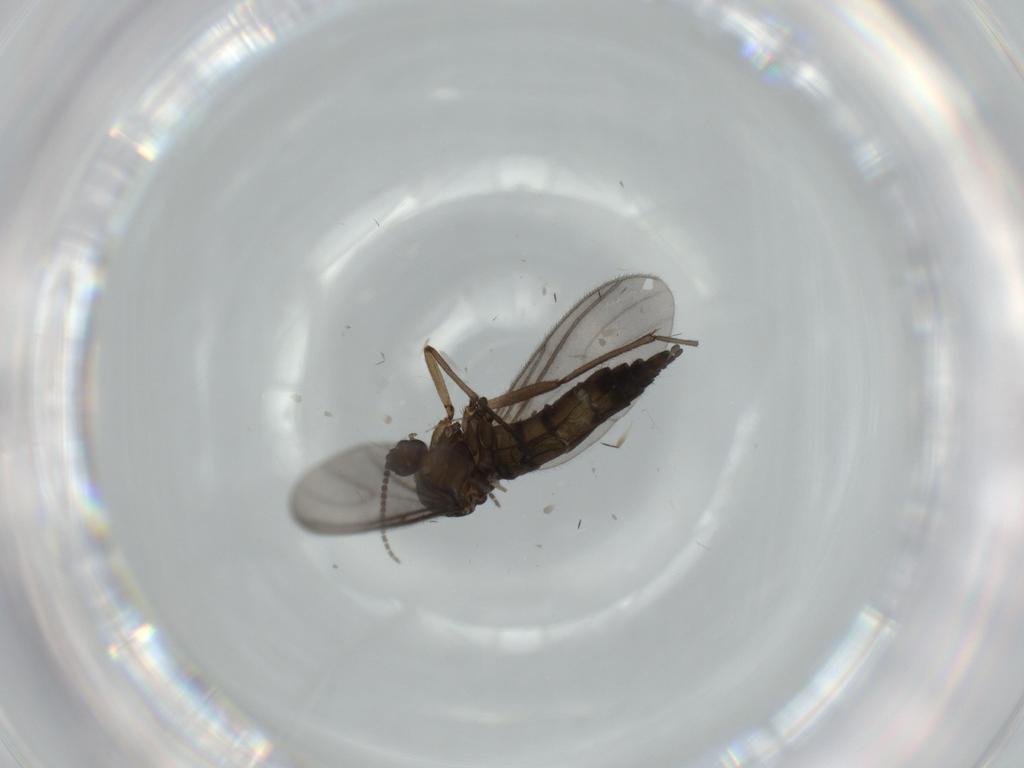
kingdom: Animalia
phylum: Arthropoda
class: Insecta
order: Diptera
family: Sciaridae
